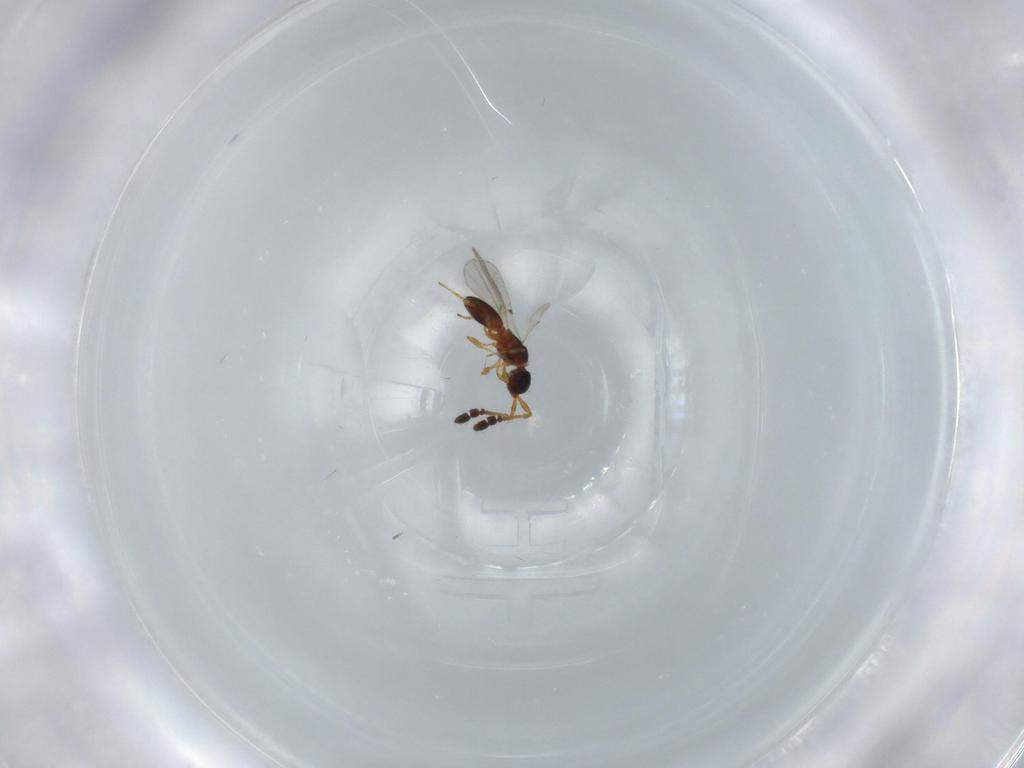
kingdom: Animalia
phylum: Arthropoda
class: Insecta
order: Hymenoptera
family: Diapriidae
